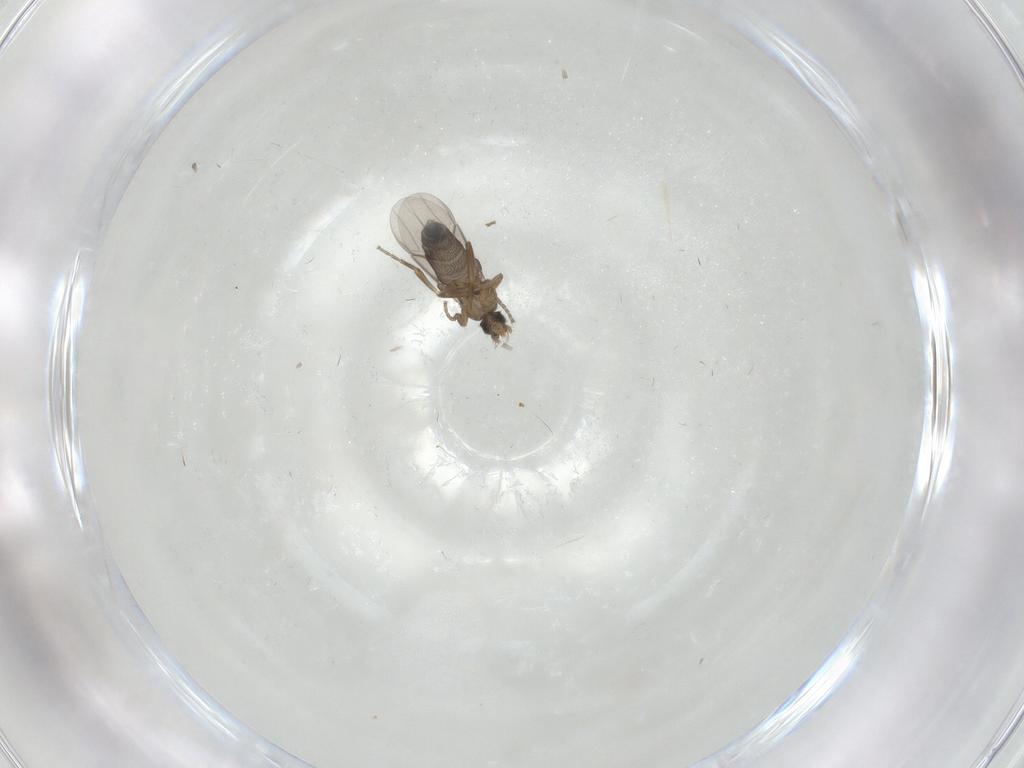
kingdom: Animalia
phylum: Arthropoda
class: Insecta
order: Diptera
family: Phoridae
